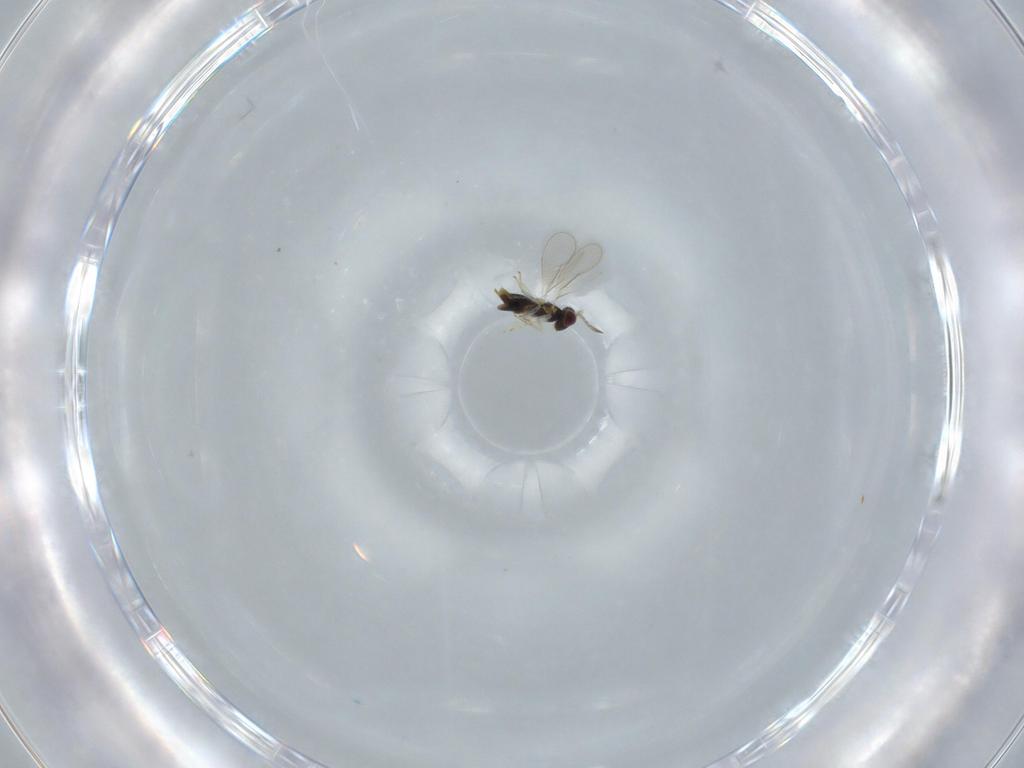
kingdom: Animalia
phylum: Arthropoda
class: Insecta
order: Hymenoptera
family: Aphelinidae
